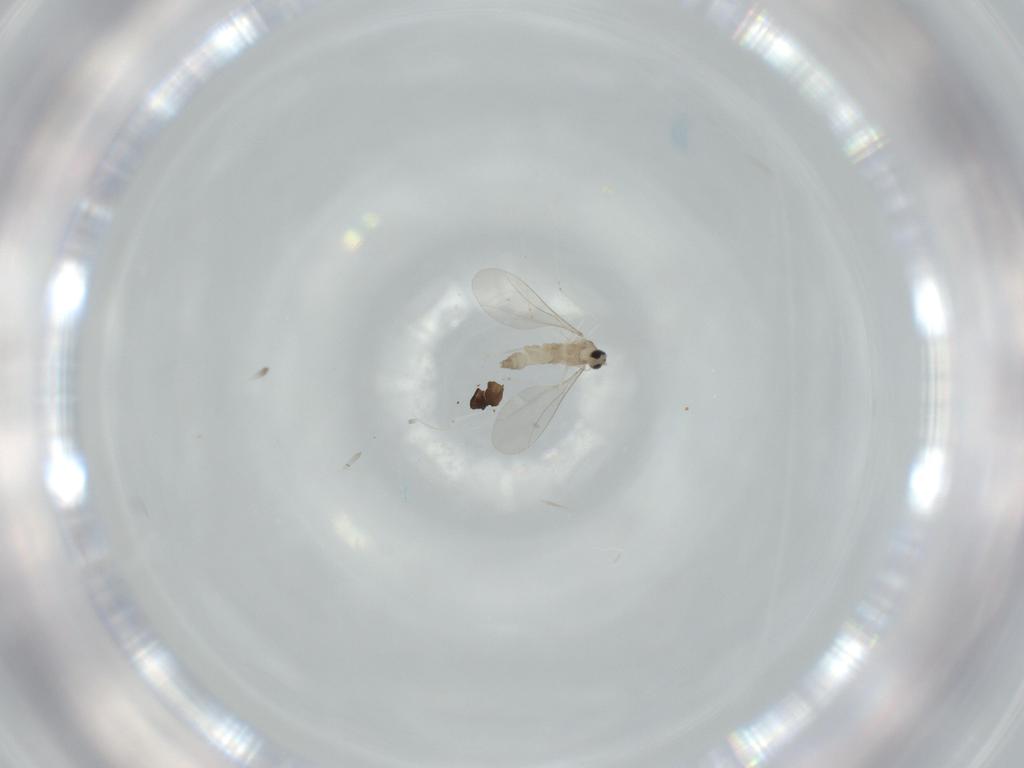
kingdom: Animalia
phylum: Arthropoda
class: Insecta
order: Diptera
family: Cecidomyiidae
